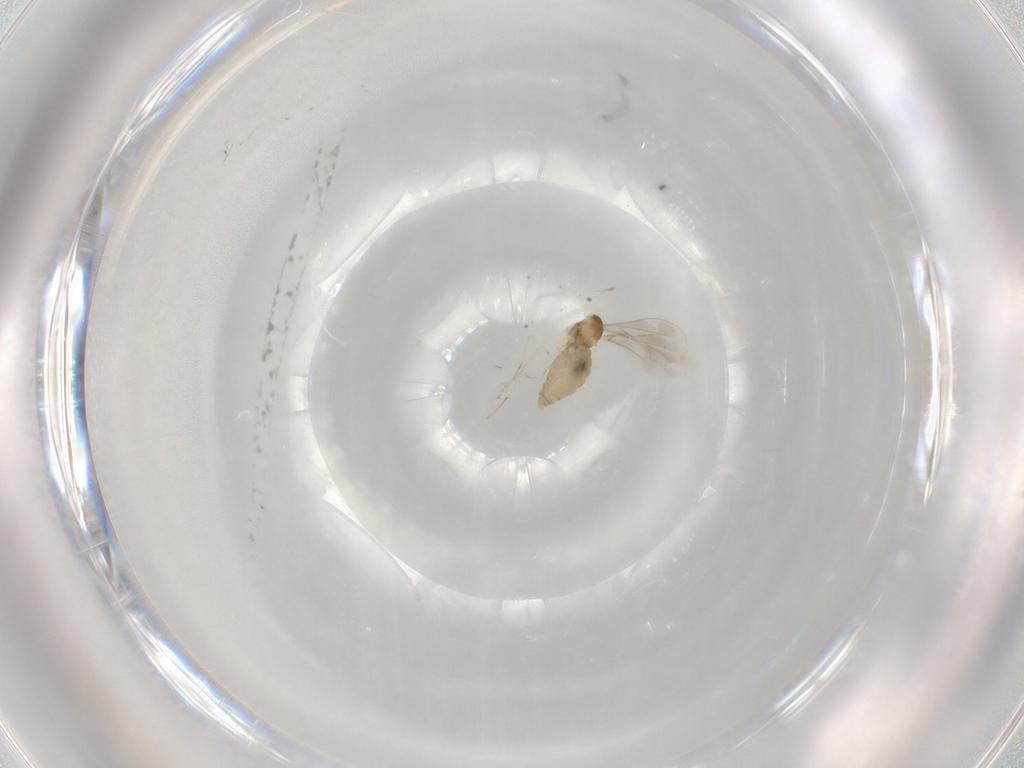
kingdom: Animalia
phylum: Arthropoda
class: Insecta
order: Diptera
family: Cecidomyiidae
